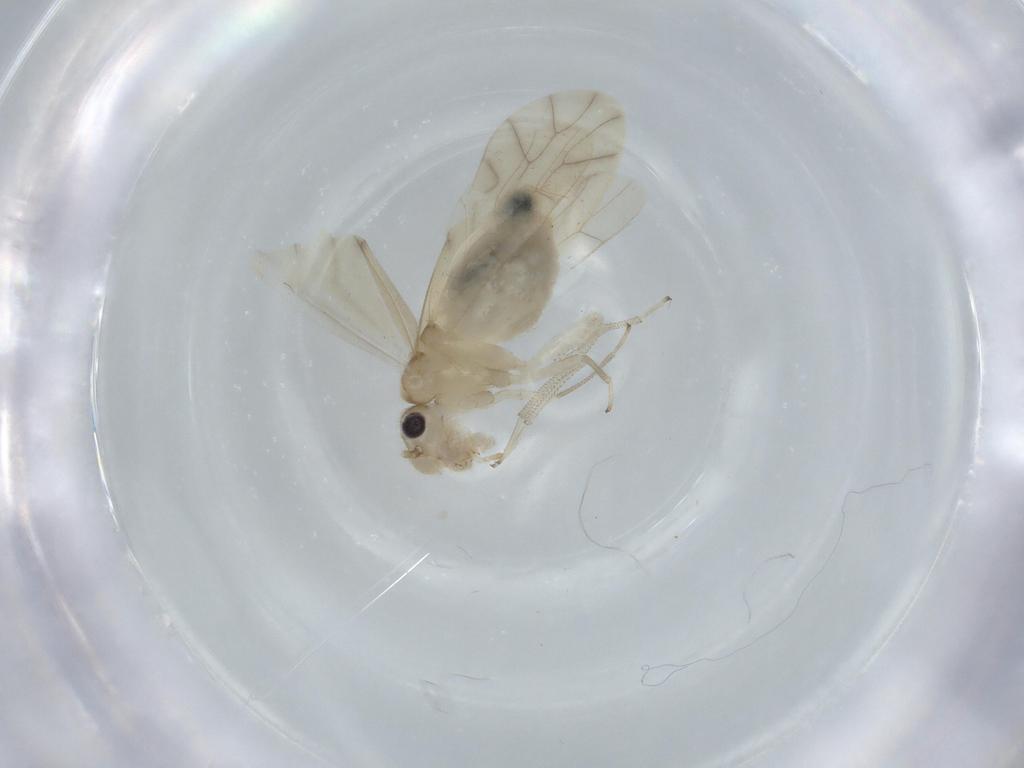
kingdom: Animalia
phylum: Arthropoda
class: Insecta
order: Psocodea
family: Caeciliusidae
